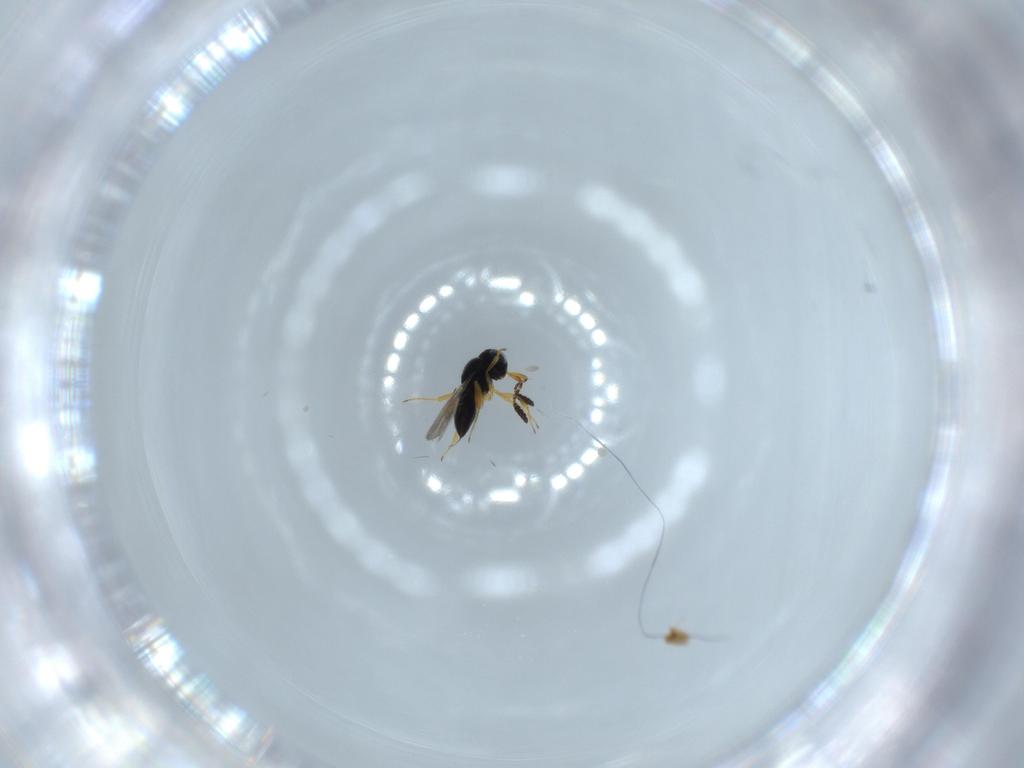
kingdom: Animalia
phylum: Arthropoda
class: Insecta
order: Hymenoptera
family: Scelionidae
